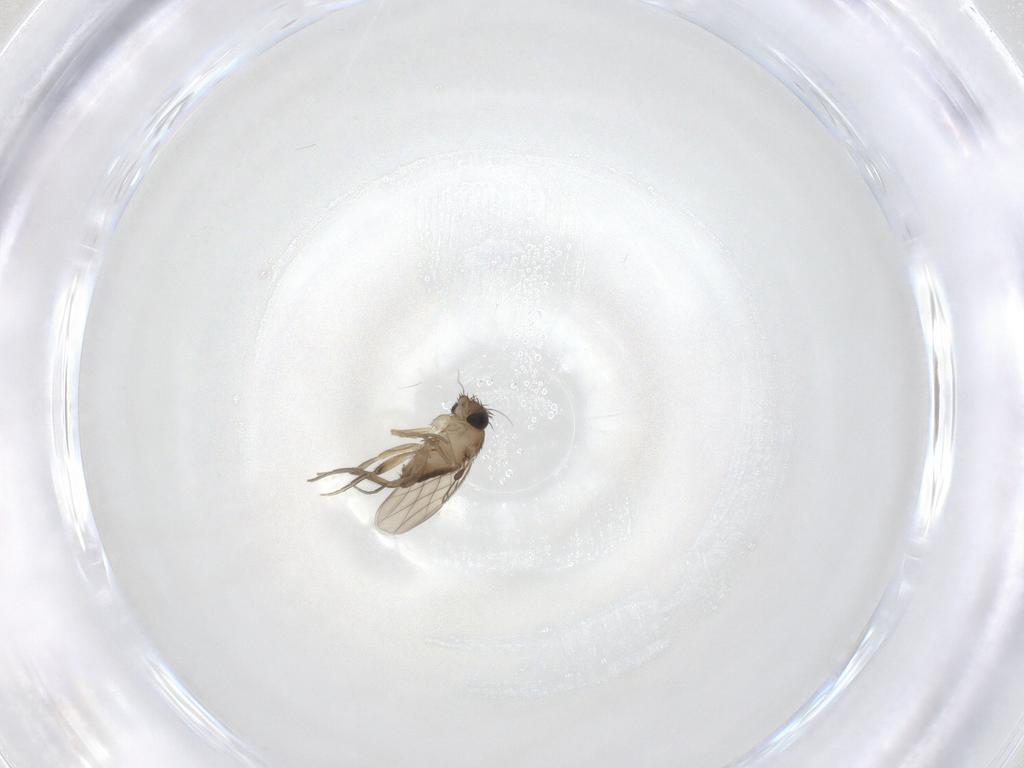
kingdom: Animalia
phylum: Arthropoda
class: Insecta
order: Diptera
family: Phoridae
